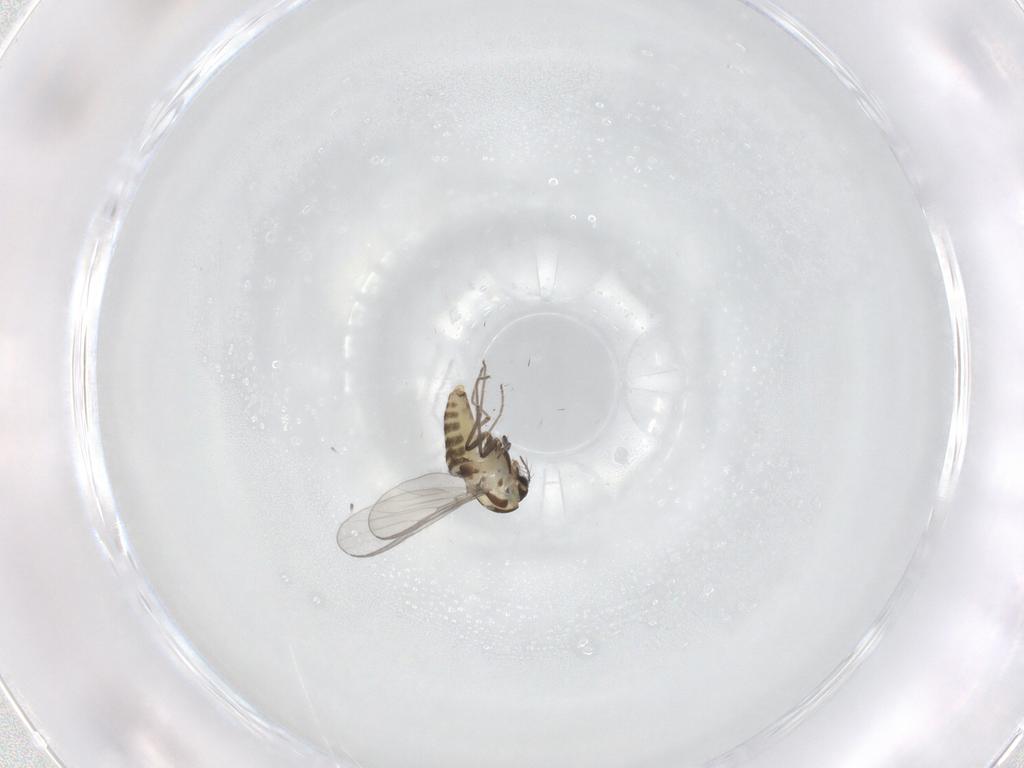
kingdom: Animalia
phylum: Arthropoda
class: Insecta
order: Diptera
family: Chironomidae
